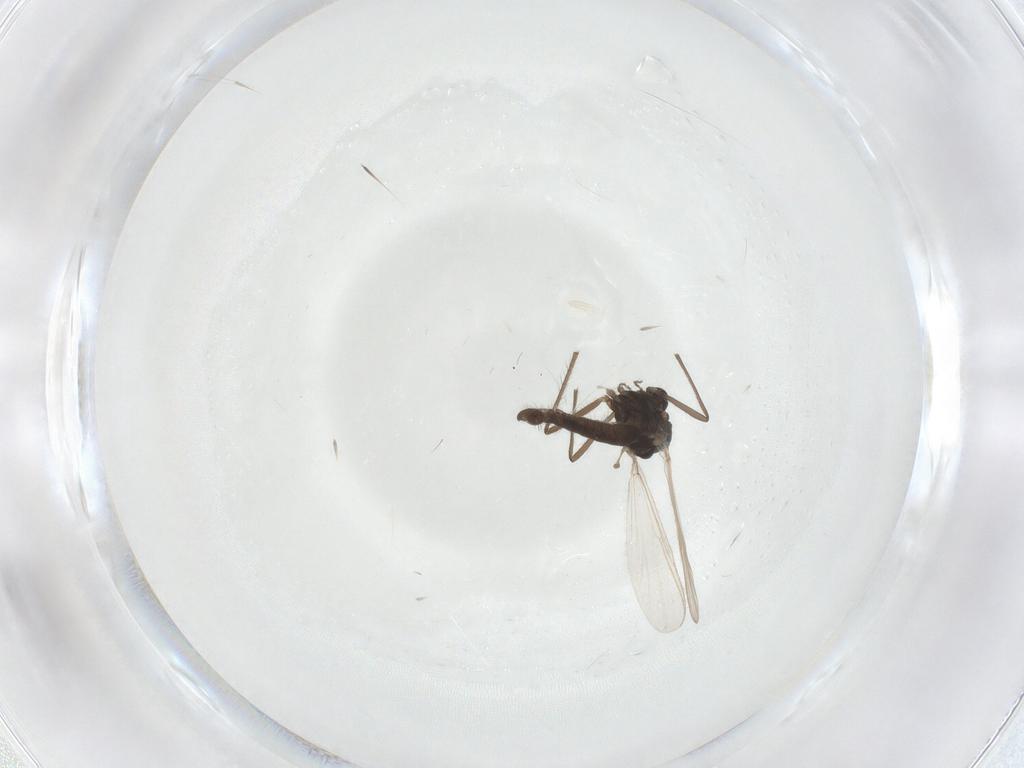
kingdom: Animalia
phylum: Arthropoda
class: Insecta
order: Diptera
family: Chironomidae
